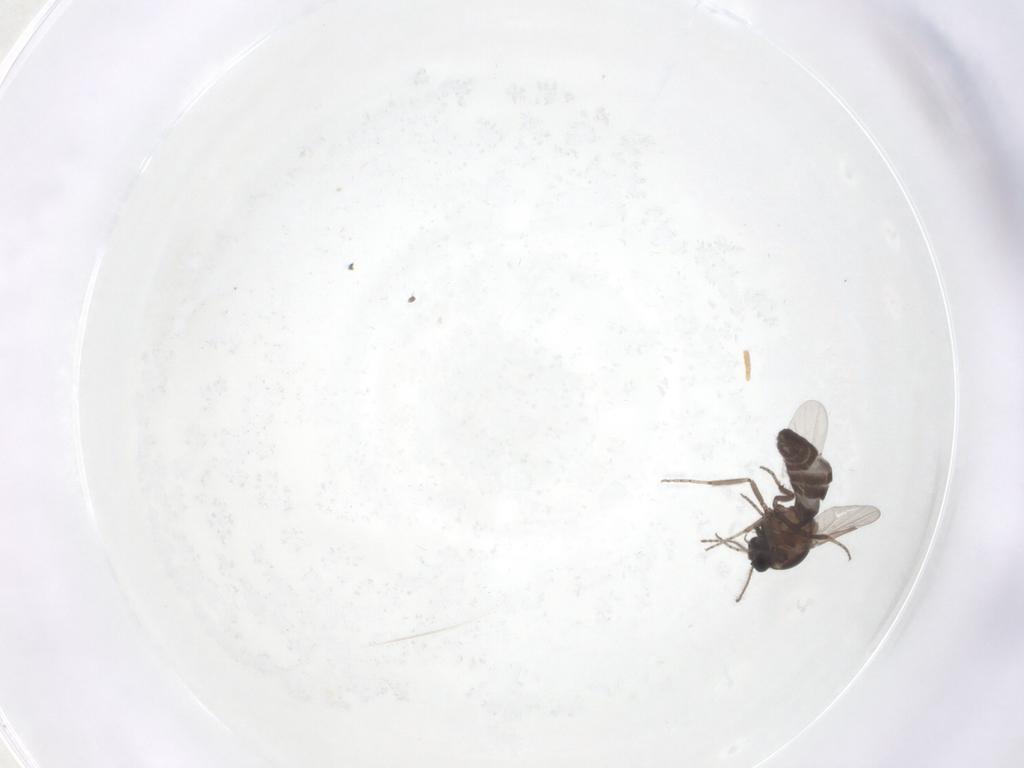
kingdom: Animalia
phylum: Arthropoda
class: Insecta
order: Diptera
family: Ceratopogonidae
